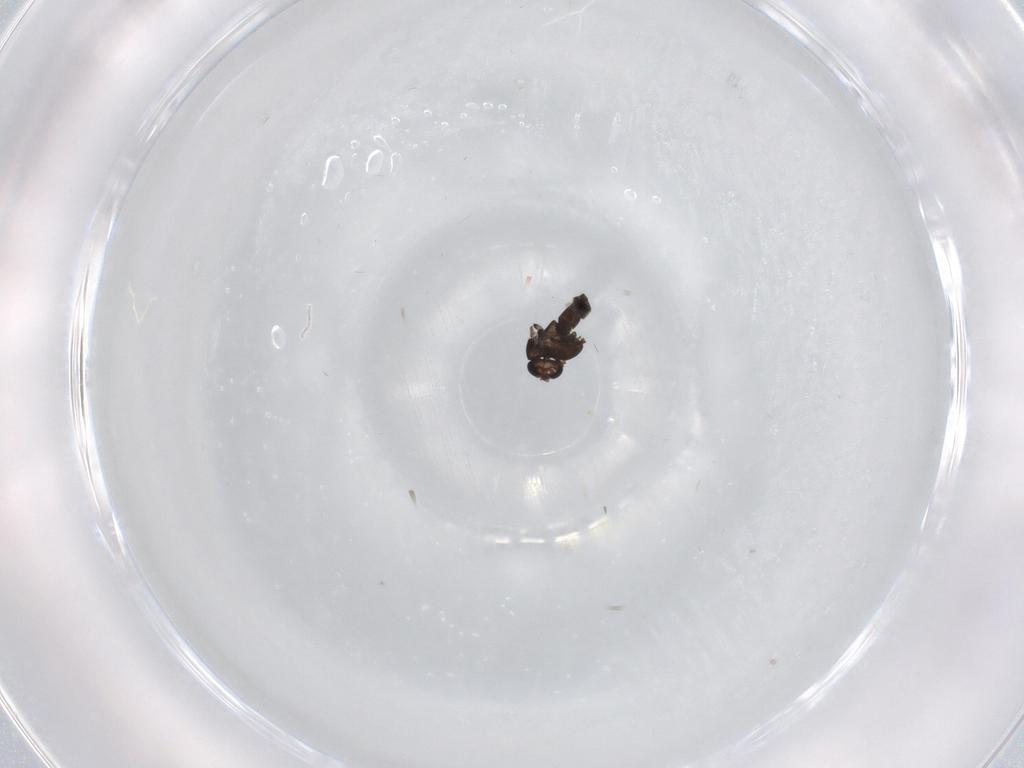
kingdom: Animalia
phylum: Arthropoda
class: Insecta
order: Diptera
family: Chironomidae
